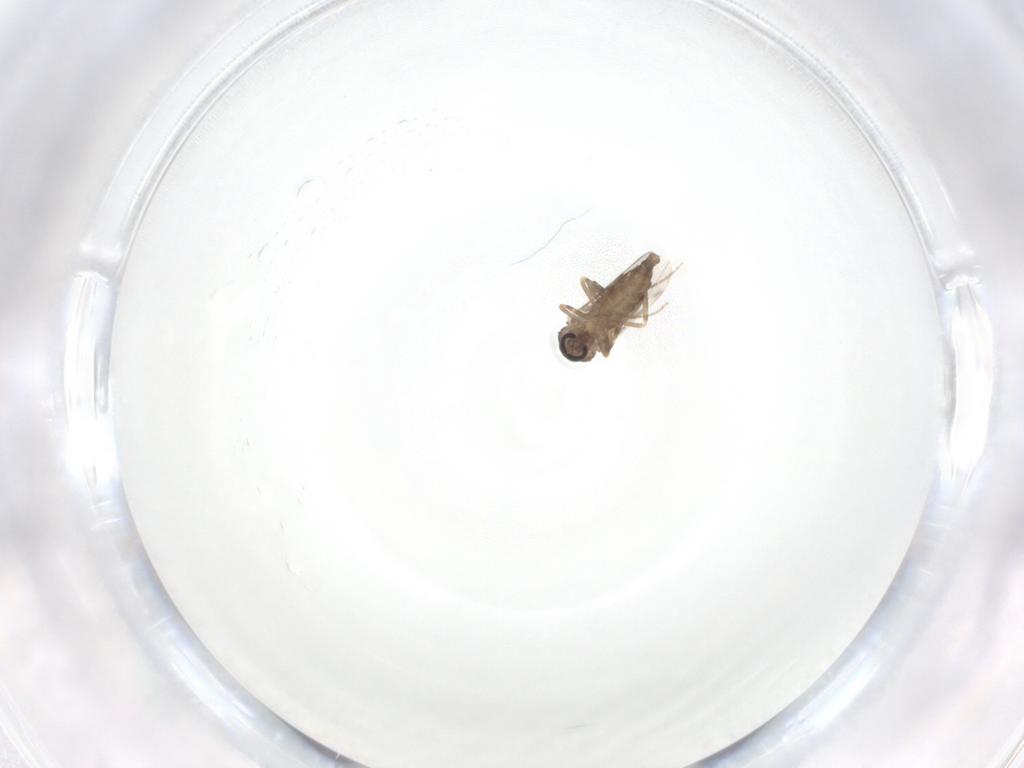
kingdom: Animalia
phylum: Arthropoda
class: Insecta
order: Diptera
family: Ceratopogonidae
